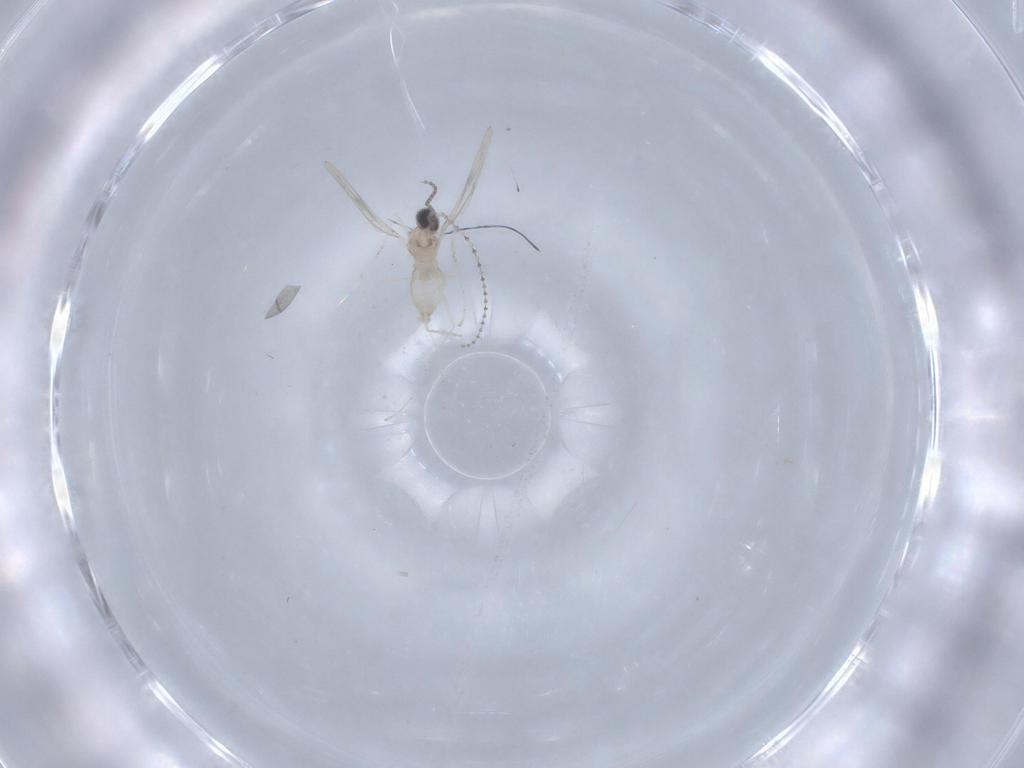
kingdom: Animalia
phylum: Arthropoda
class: Insecta
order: Diptera
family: Cecidomyiidae
